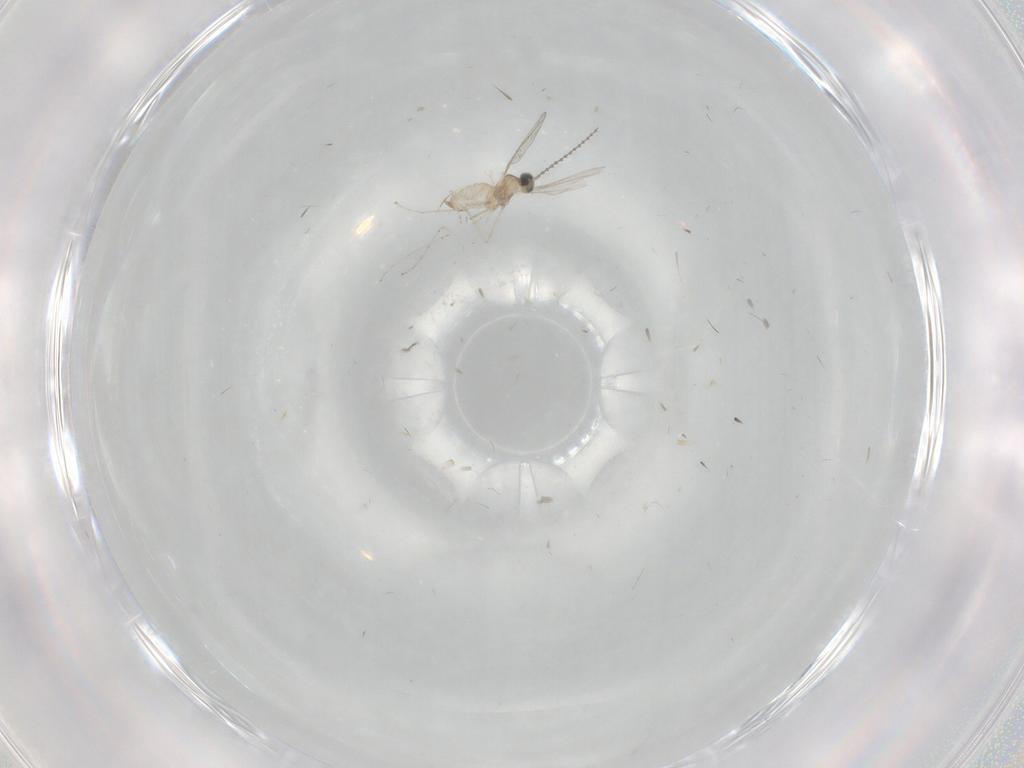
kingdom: Animalia
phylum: Arthropoda
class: Insecta
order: Diptera
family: Cecidomyiidae
